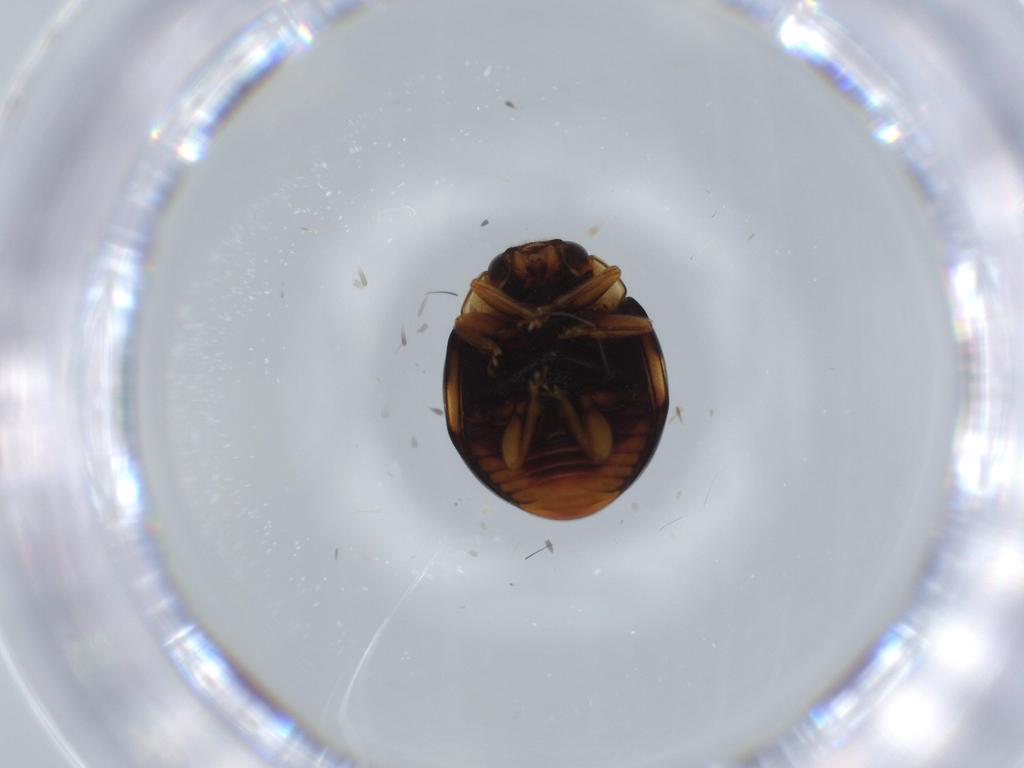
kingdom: Animalia
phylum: Arthropoda
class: Insecta
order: Coleoptera
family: Coccinellidae
